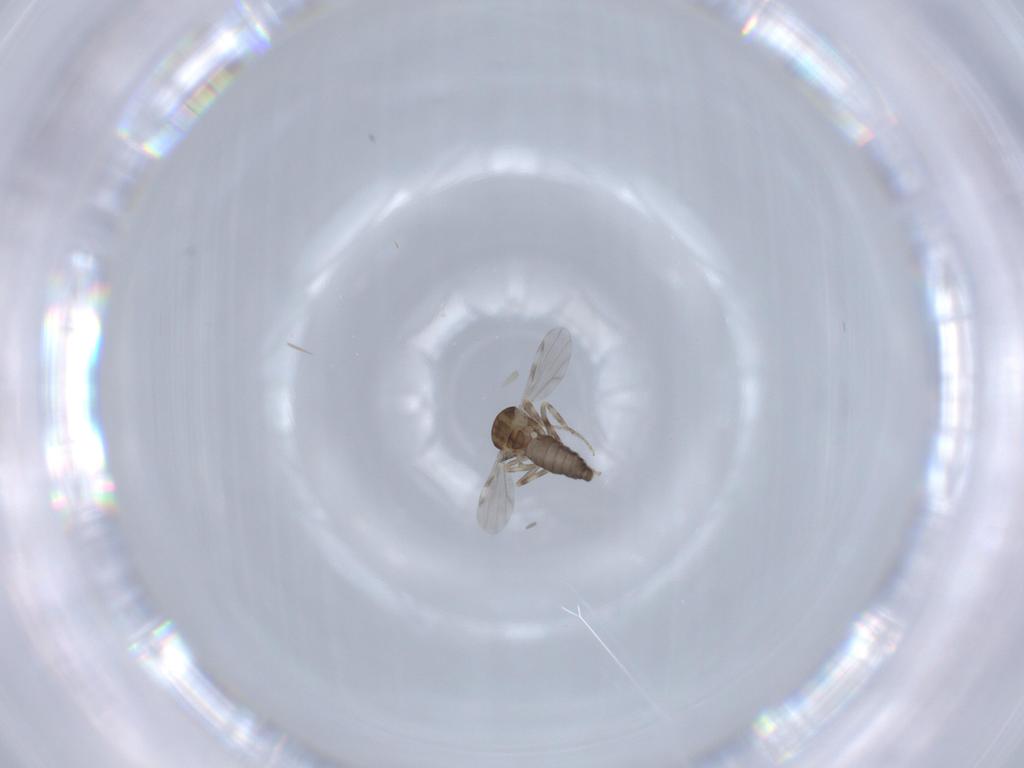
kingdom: Animalia
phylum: Arthropoda
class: Insecta
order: Diptera
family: Ceratopogonidae
